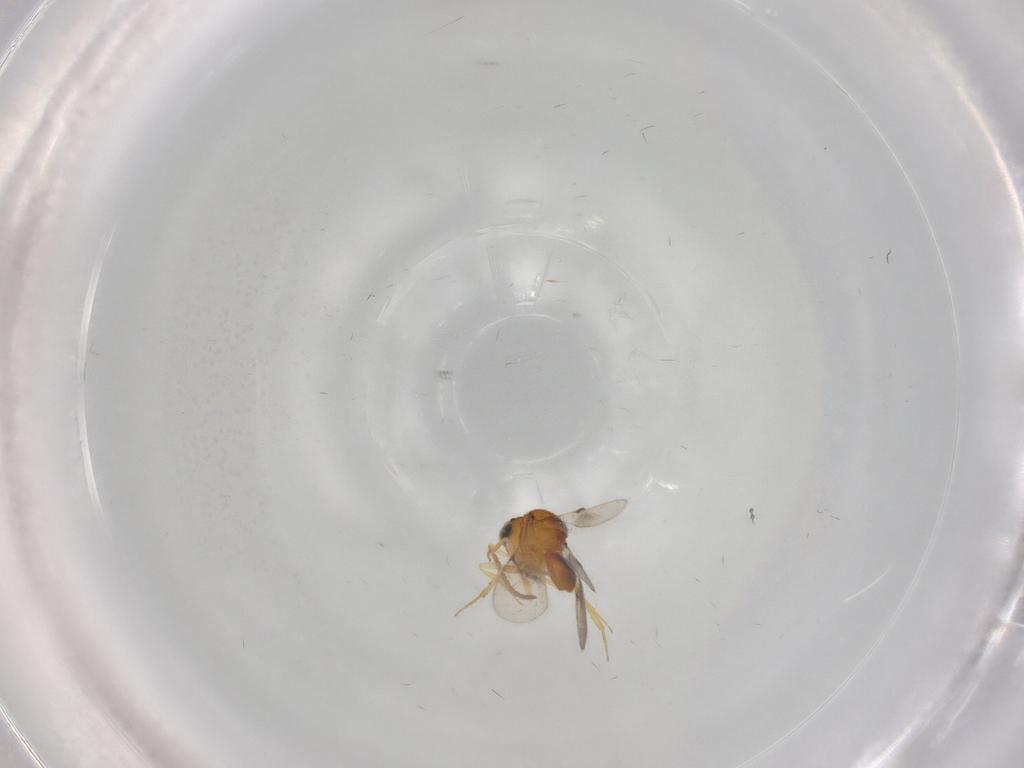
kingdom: Animalia
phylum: Arthropoda
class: Insecta
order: Hymenoptera
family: Scelionidae
